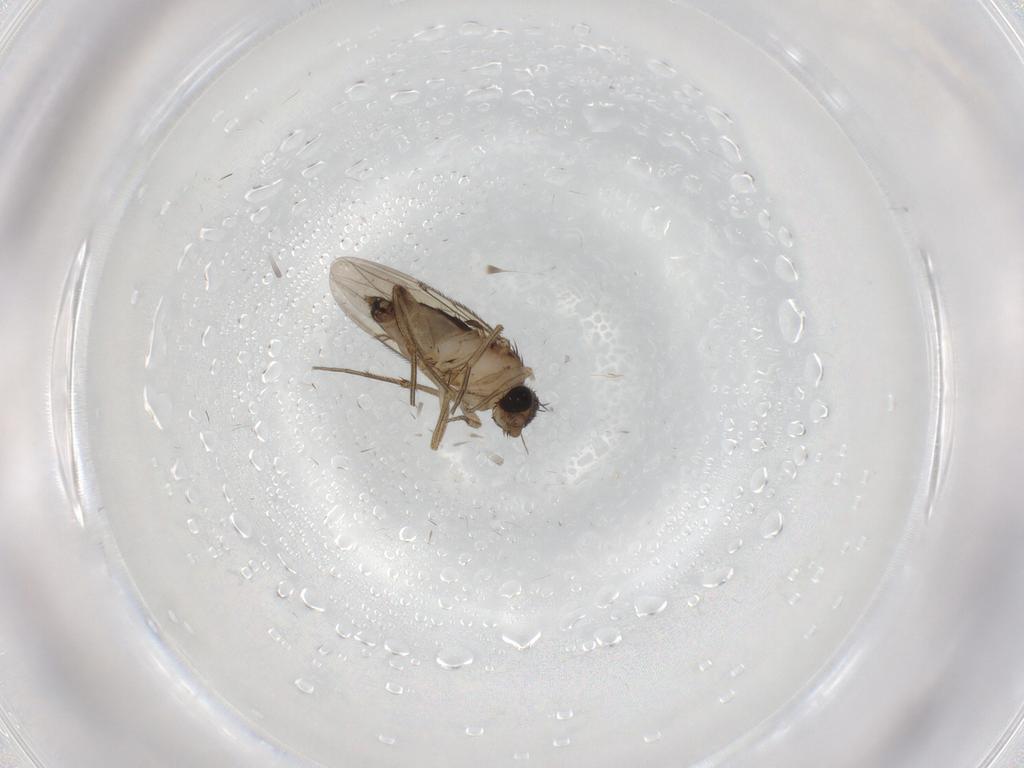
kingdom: Animalia
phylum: Arthropoda
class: Insecta
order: Diptera
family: Phoridae
